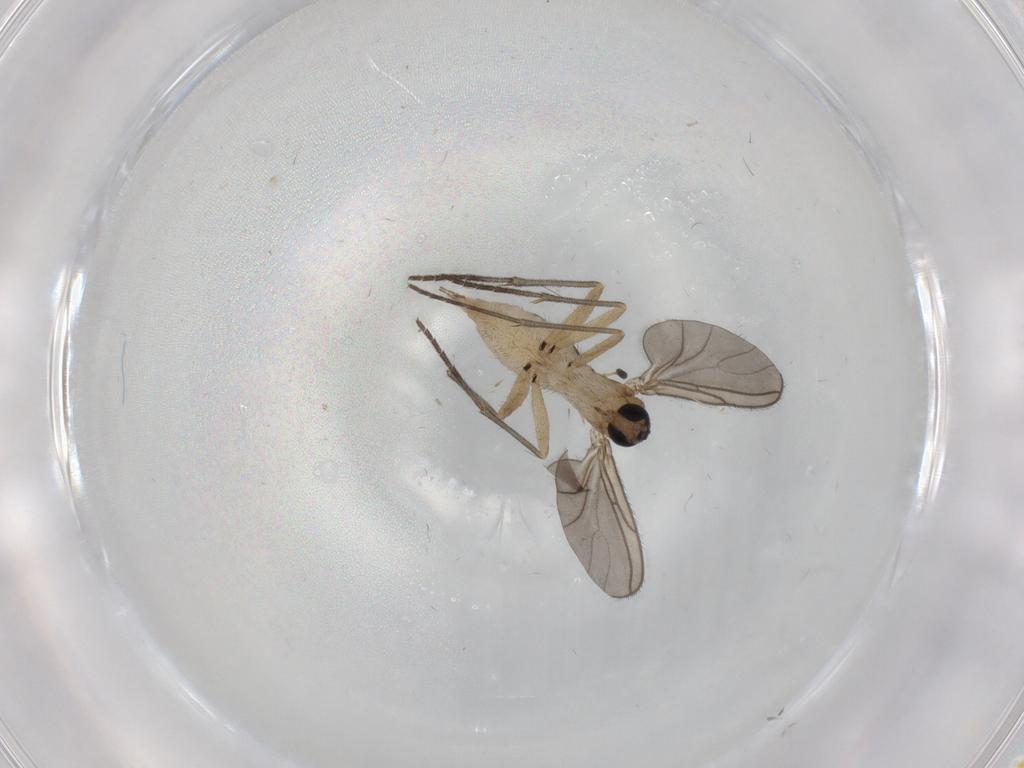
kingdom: Animalia
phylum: Arthropoda
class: Insecta
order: Diptera
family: Sciaridae
